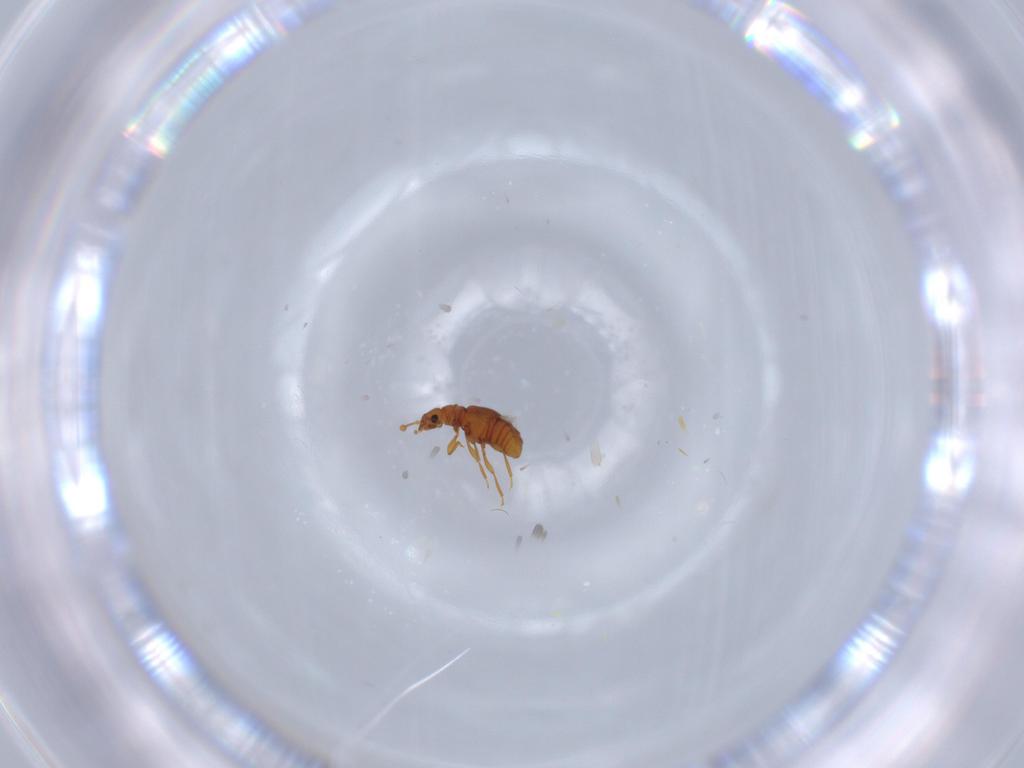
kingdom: Animalia
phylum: Arthropoda
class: Insecta
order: Coleoptera
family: Staphylinidae
